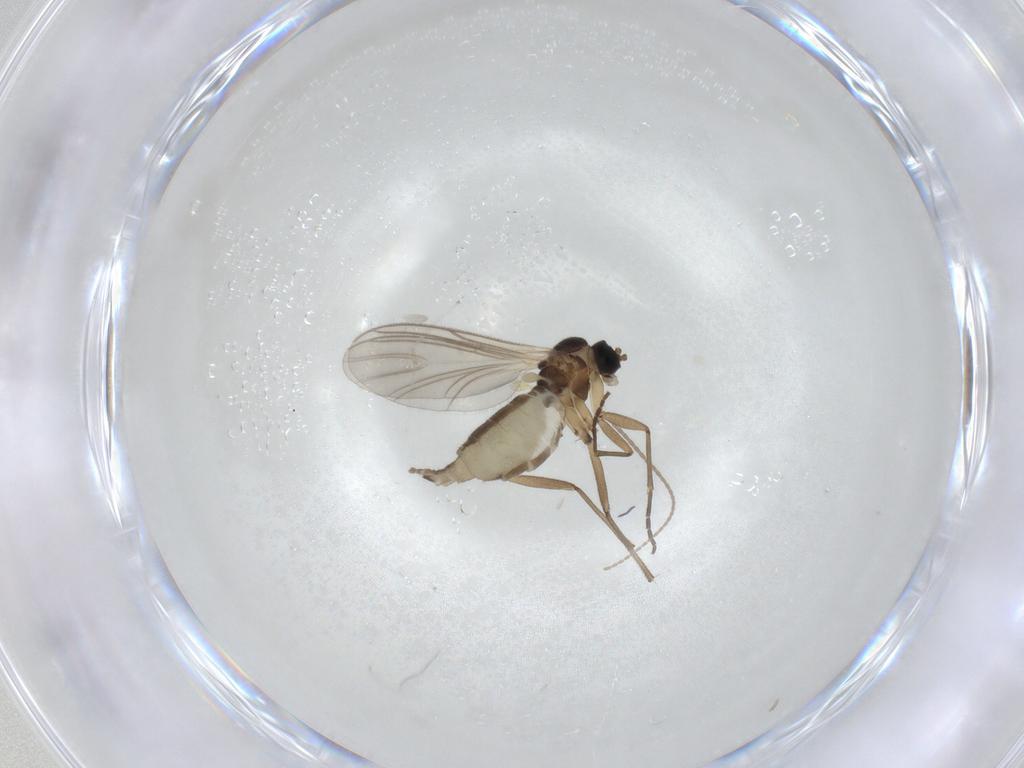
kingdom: Animalia
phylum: Arthropoda
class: Insecta
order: Diptera
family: Cecidomyiidae
